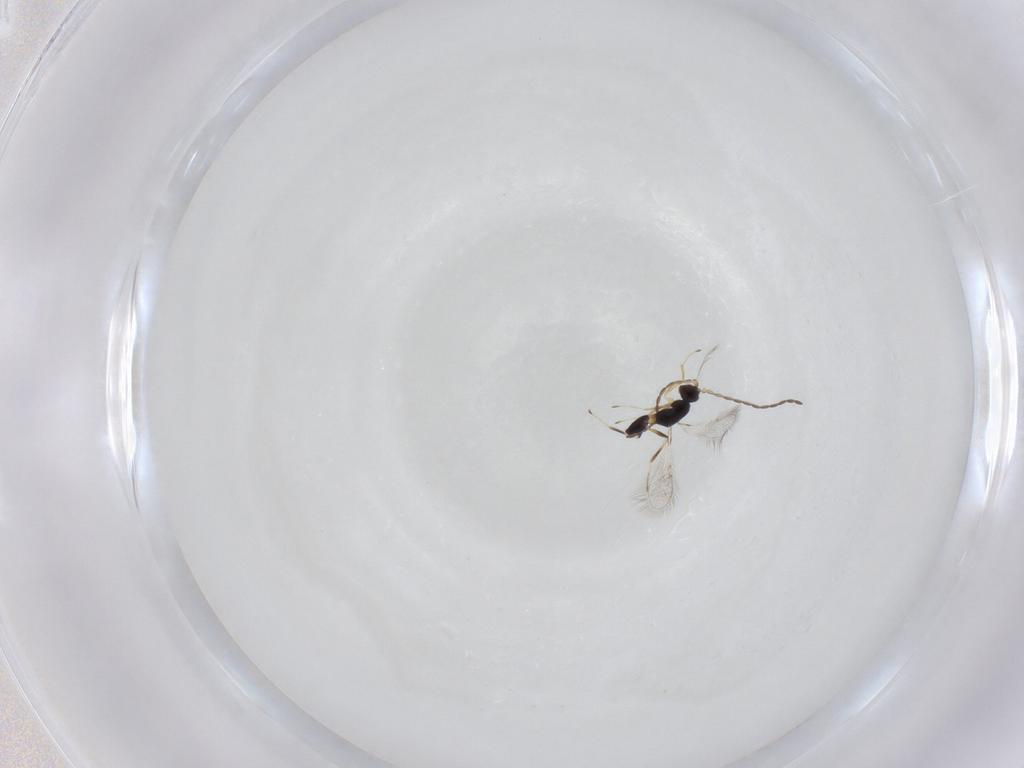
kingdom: Animalia
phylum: Arthropoda
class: Insecta
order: Hymenoptera
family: Mymaridae
